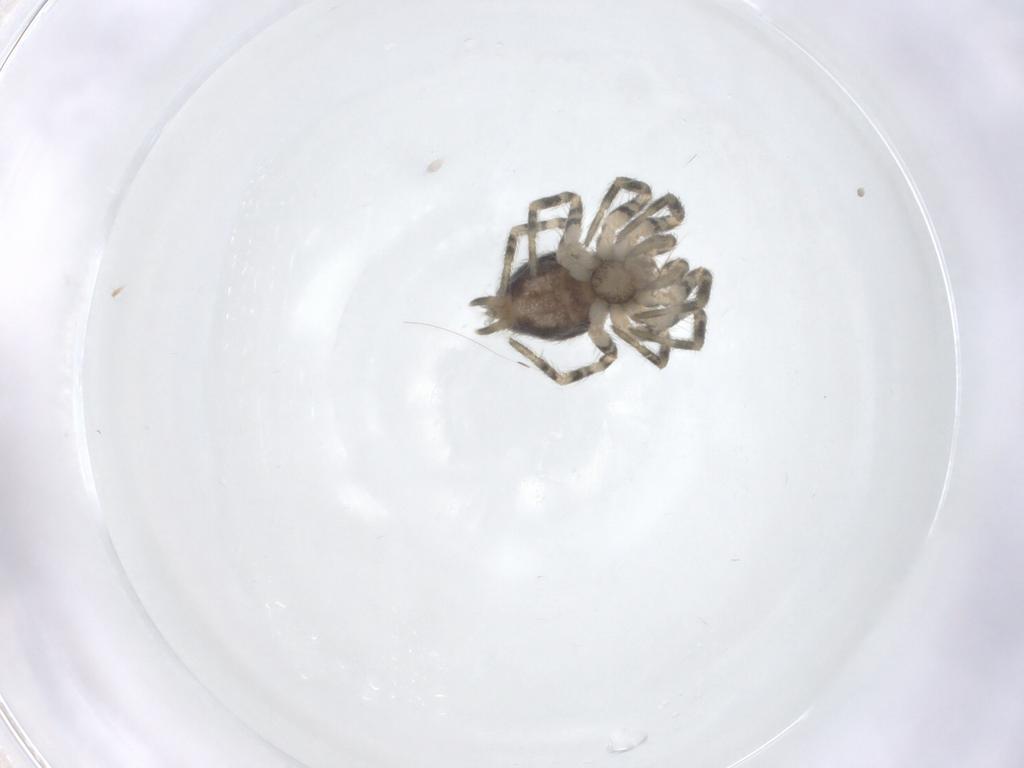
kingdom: Animalia
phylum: Arthropoda
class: Arachnida
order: Araneae
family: Oecobiidae
